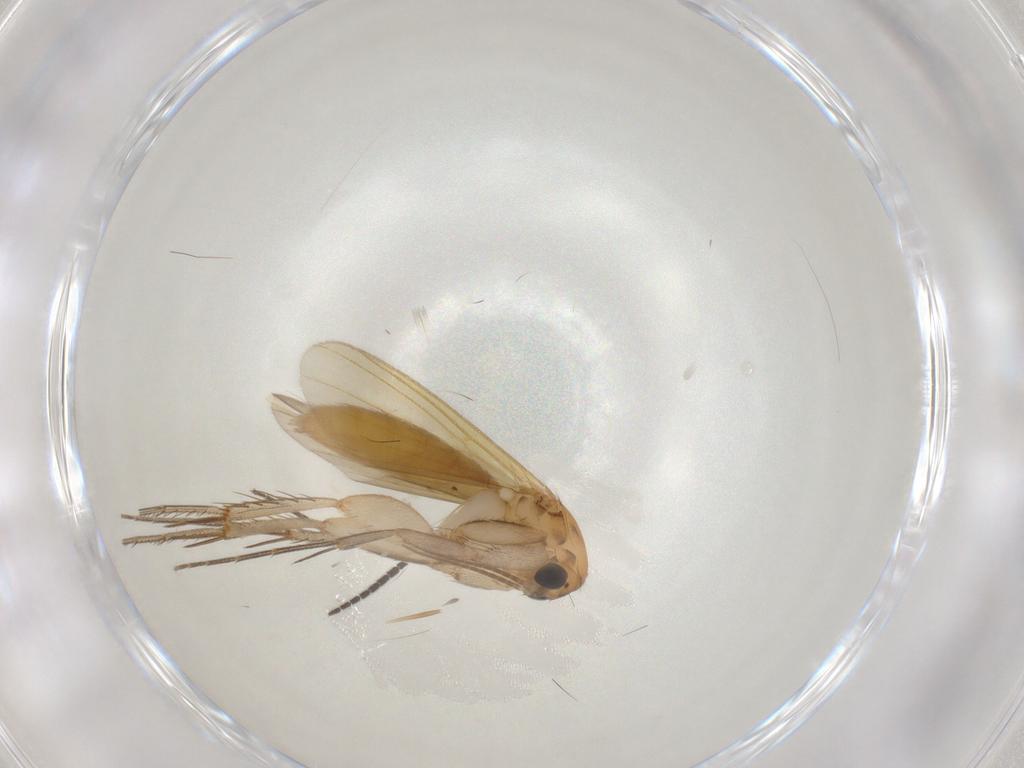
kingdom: Animalia
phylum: Arthropoda
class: Insecta
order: Diptera
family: Mycetophilidae
